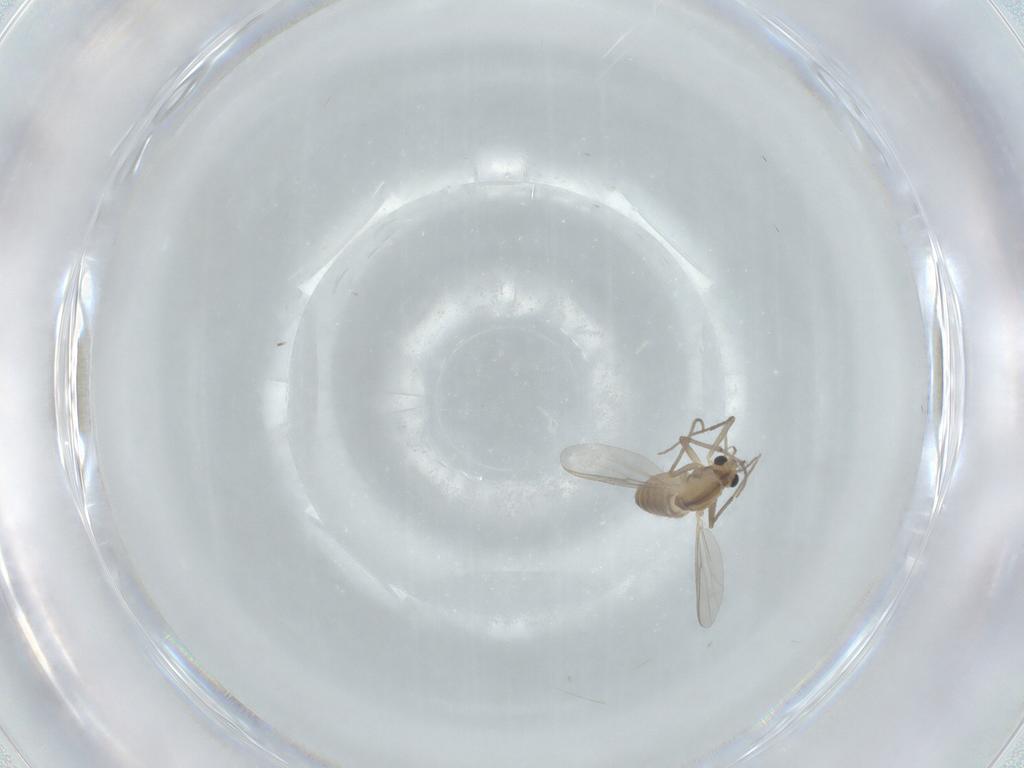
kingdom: Animalia
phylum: Arthropoda
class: Insecta
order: Diptera
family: Chironomidae
